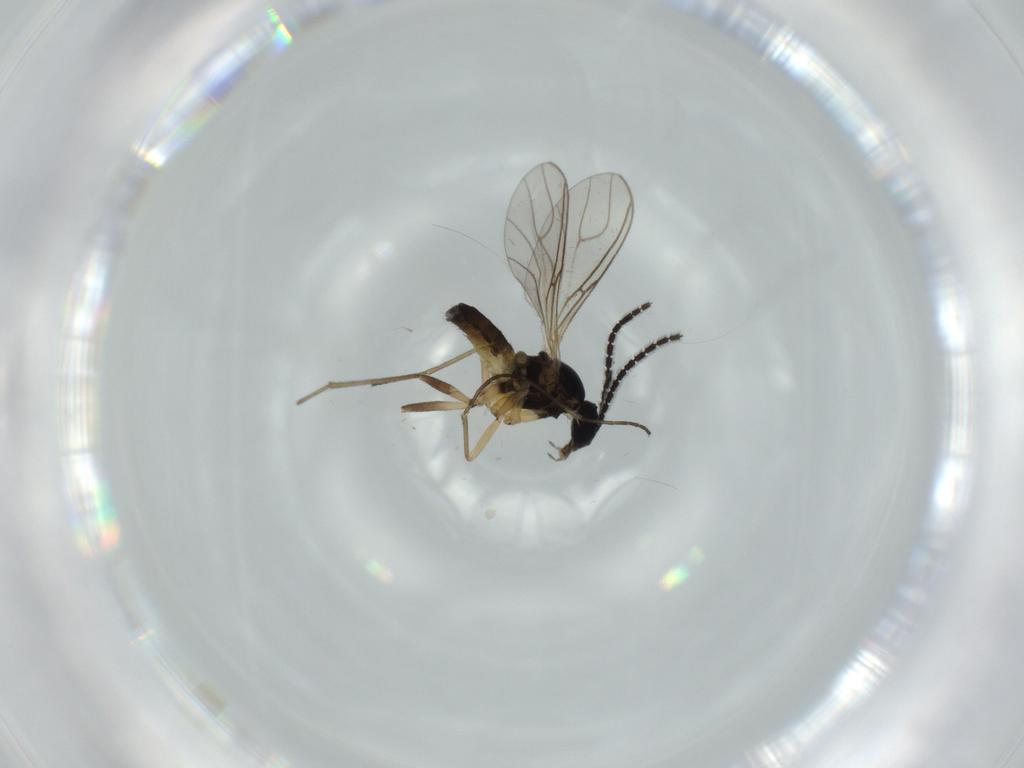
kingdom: Animalia
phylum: Arthropoda
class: Insecta
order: Diptera
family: Sciaridae
